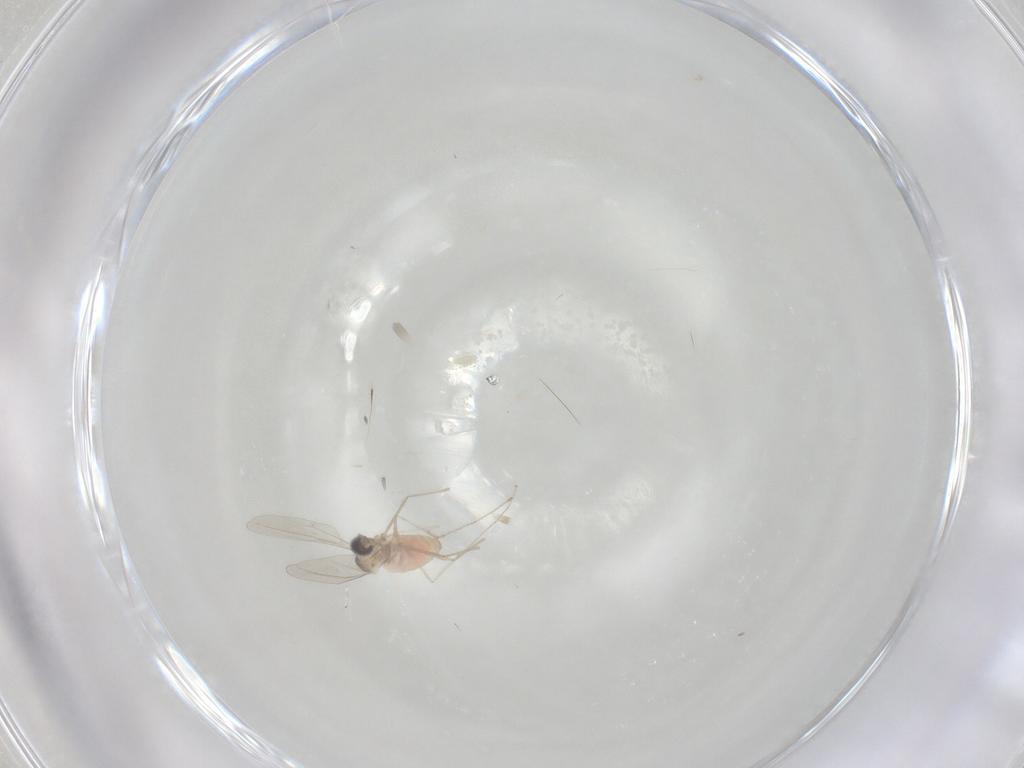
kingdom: Animalia
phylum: Arthropoda
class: Insecta
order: Diptera
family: Cecidomyiidae
